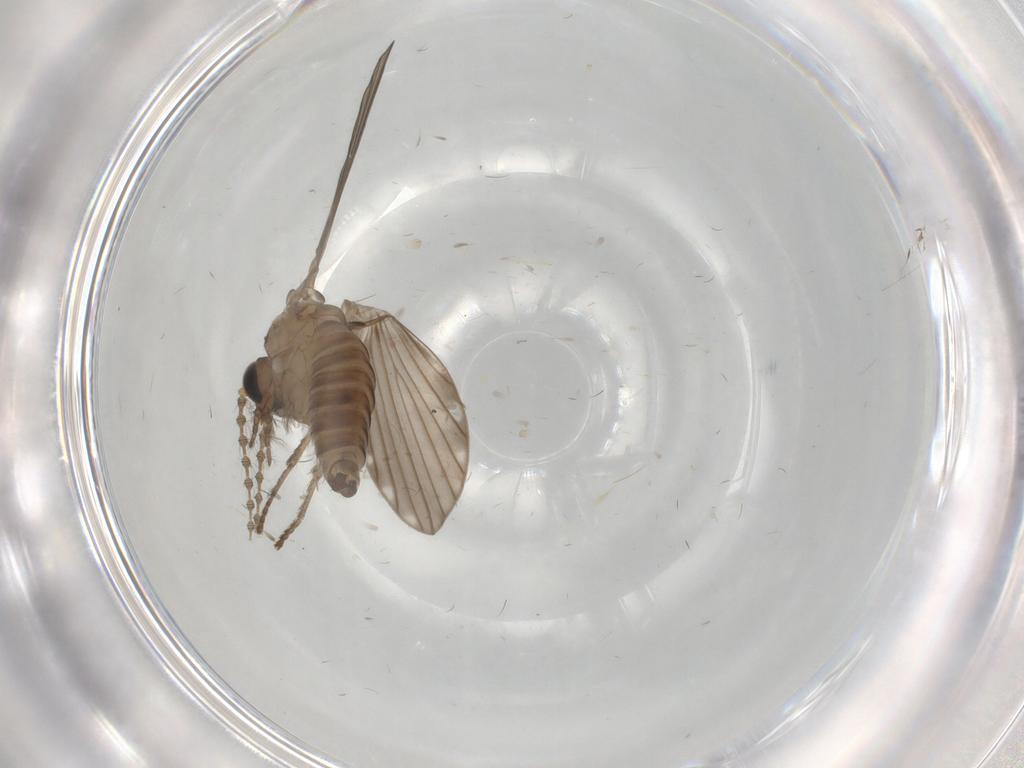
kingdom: Animalia
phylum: Arthropoda
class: Insecta
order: Diptera
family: Psychodidae
